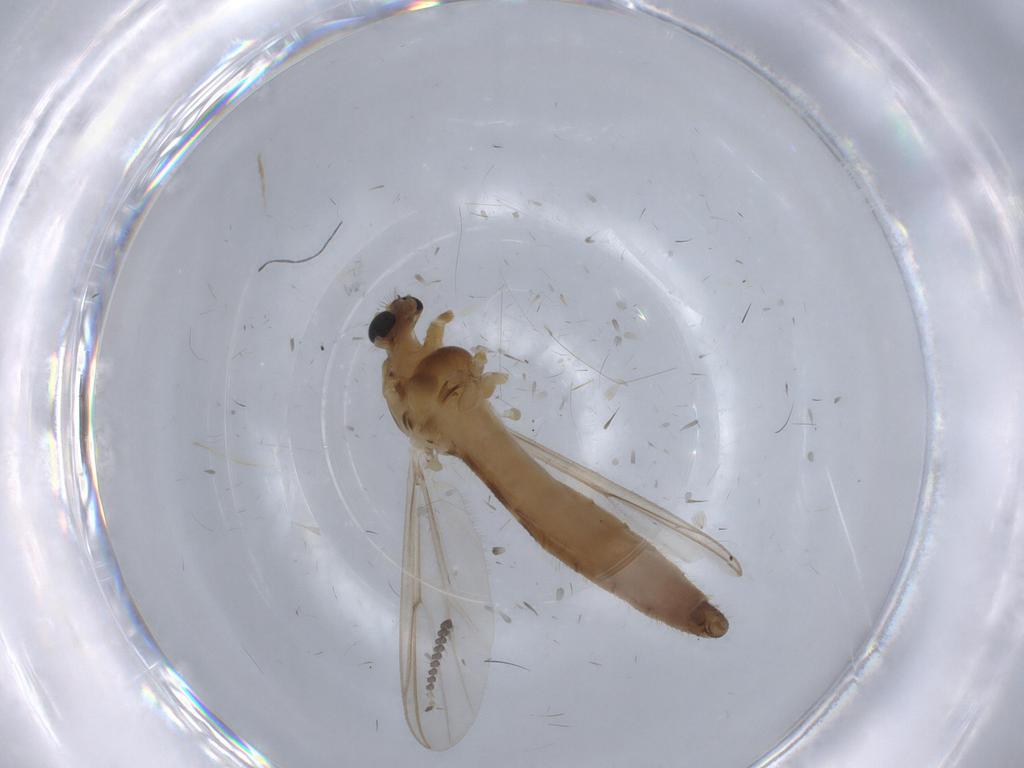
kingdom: Animalia
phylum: Arthropoda
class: Insecta
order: Diptera
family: Chironomidae
